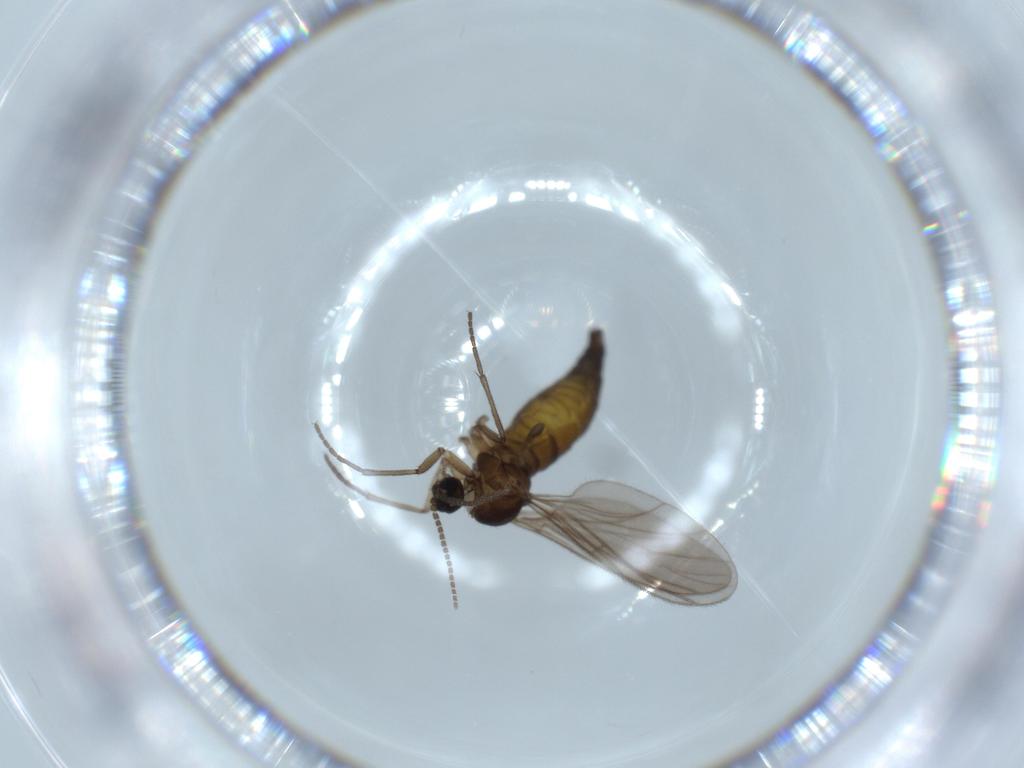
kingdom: Animalia
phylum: Arthropoda
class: Insecta
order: Diptera
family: Sciaridae
